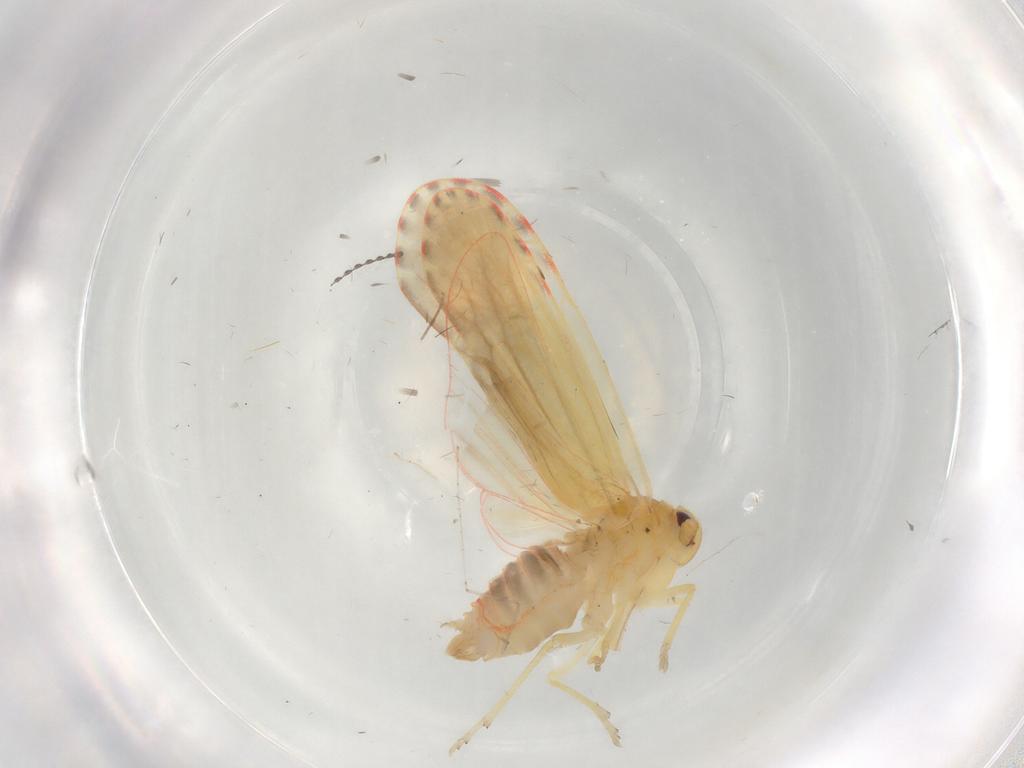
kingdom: Animalia
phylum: Arthropoda
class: Insecta
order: Hemiptera
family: Derbidae
